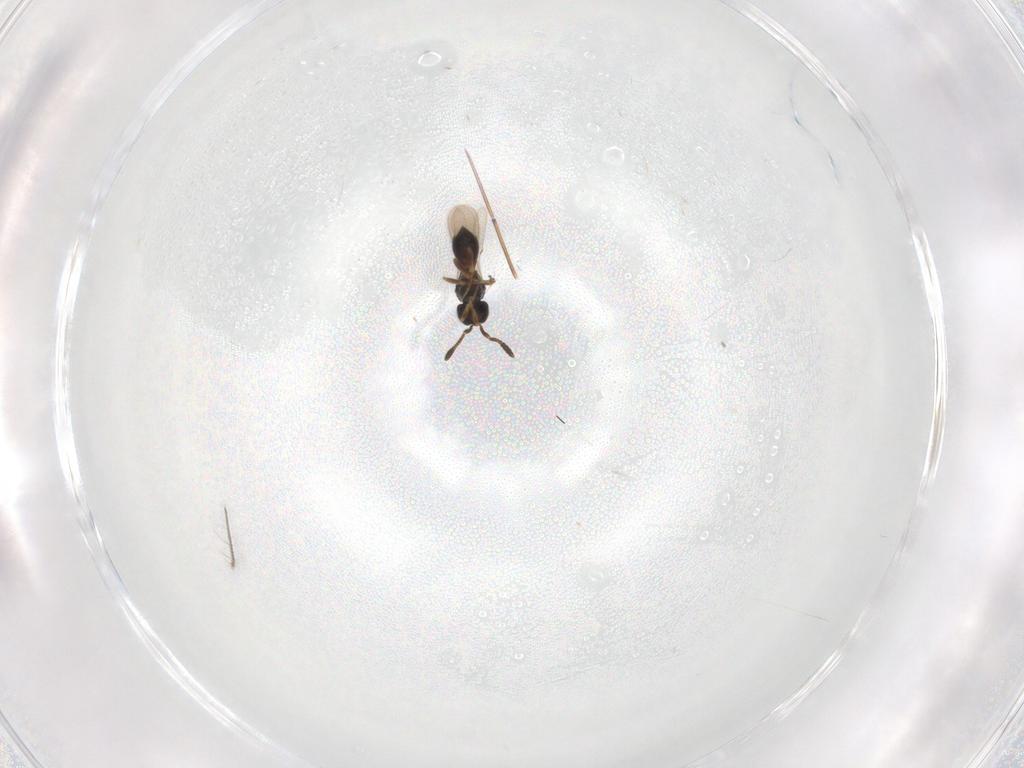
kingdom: Animalia
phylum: Arthropoda
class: Insecta
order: Hymenoptera
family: Scelionidae
